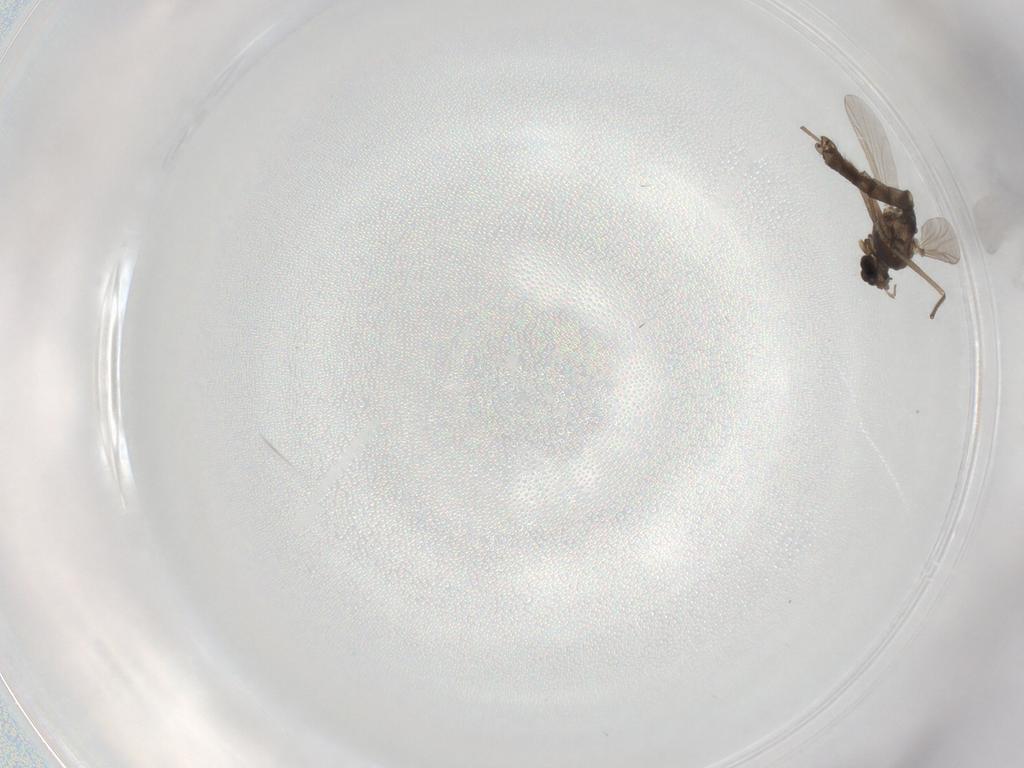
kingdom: Animalia
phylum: Arthropoda
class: Insecta
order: Diptera
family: Chironomidae
